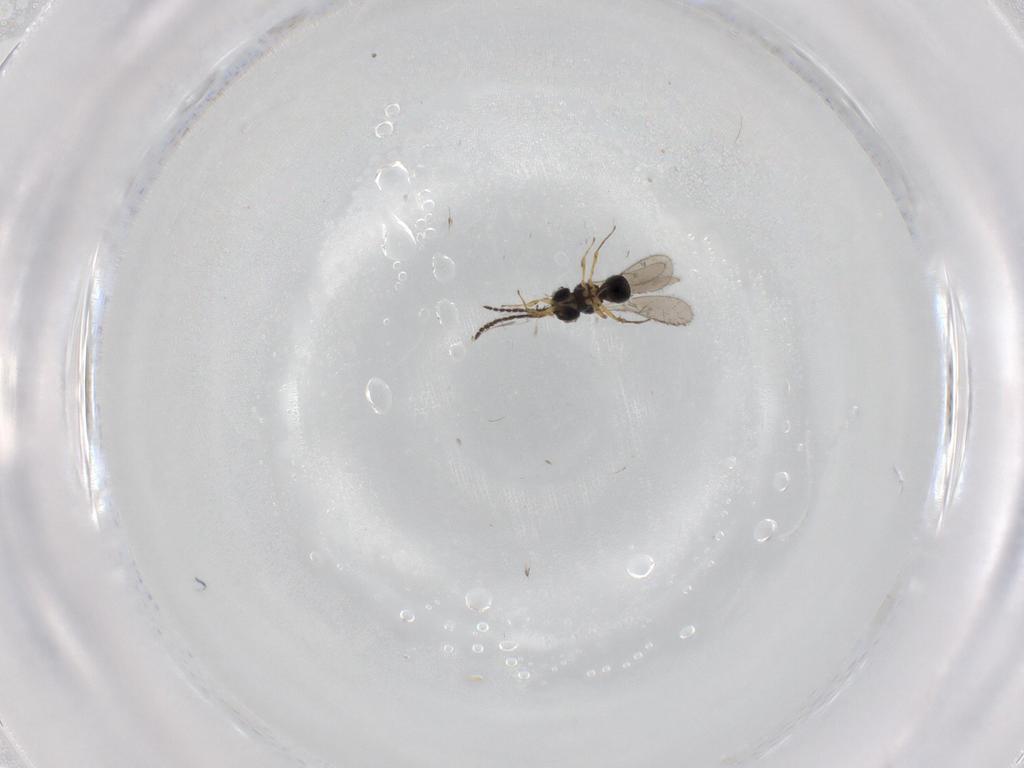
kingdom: Animalia
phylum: Arthropoda
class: Insecta
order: Hymenoptera
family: Scelionidae
